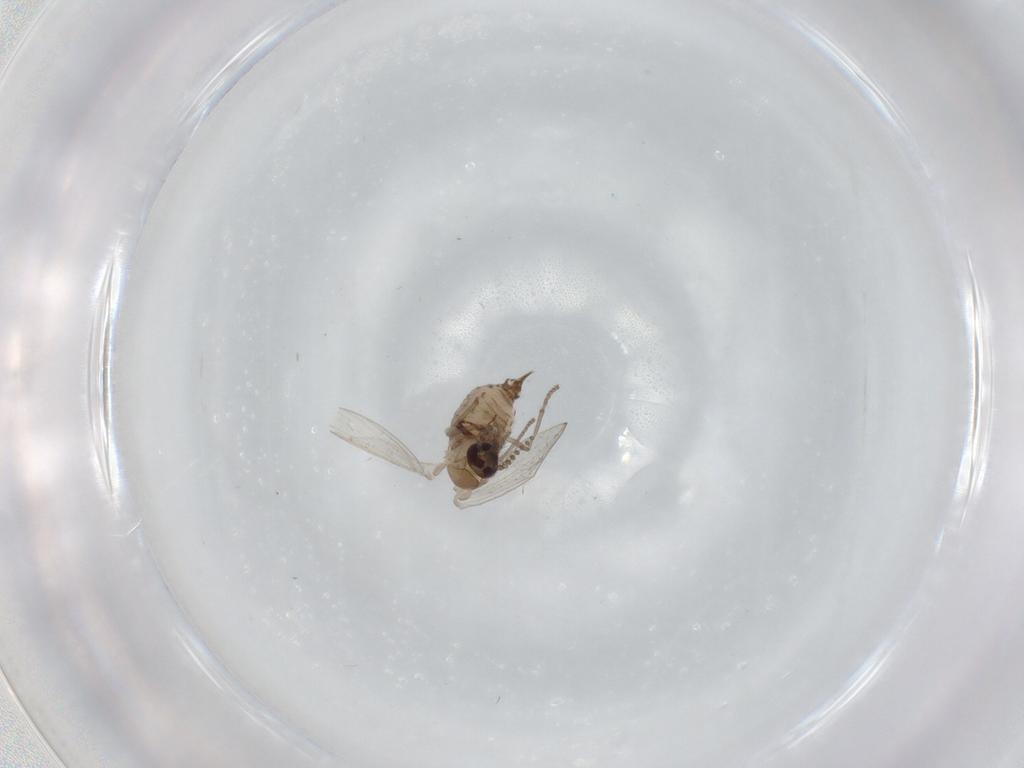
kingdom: Animalia
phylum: Arthropoda
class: Insecta
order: Diptera
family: Psychodidae
